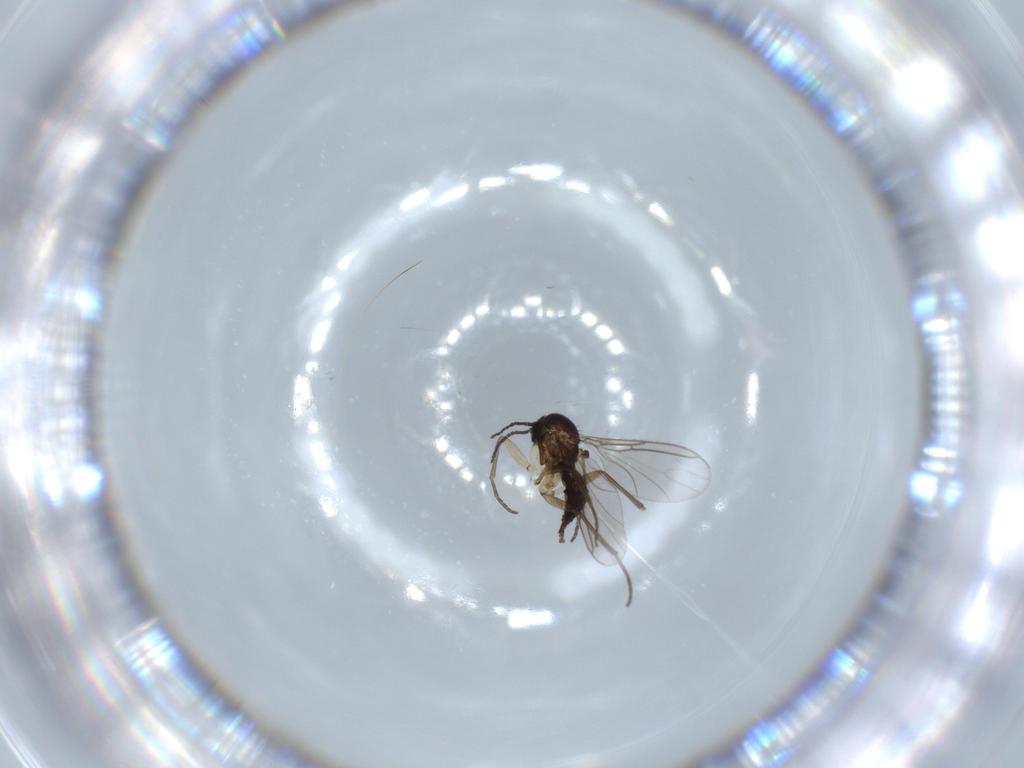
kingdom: Animalia
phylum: Arthropoda
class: Insecta
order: Diptera
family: Sciaridae
